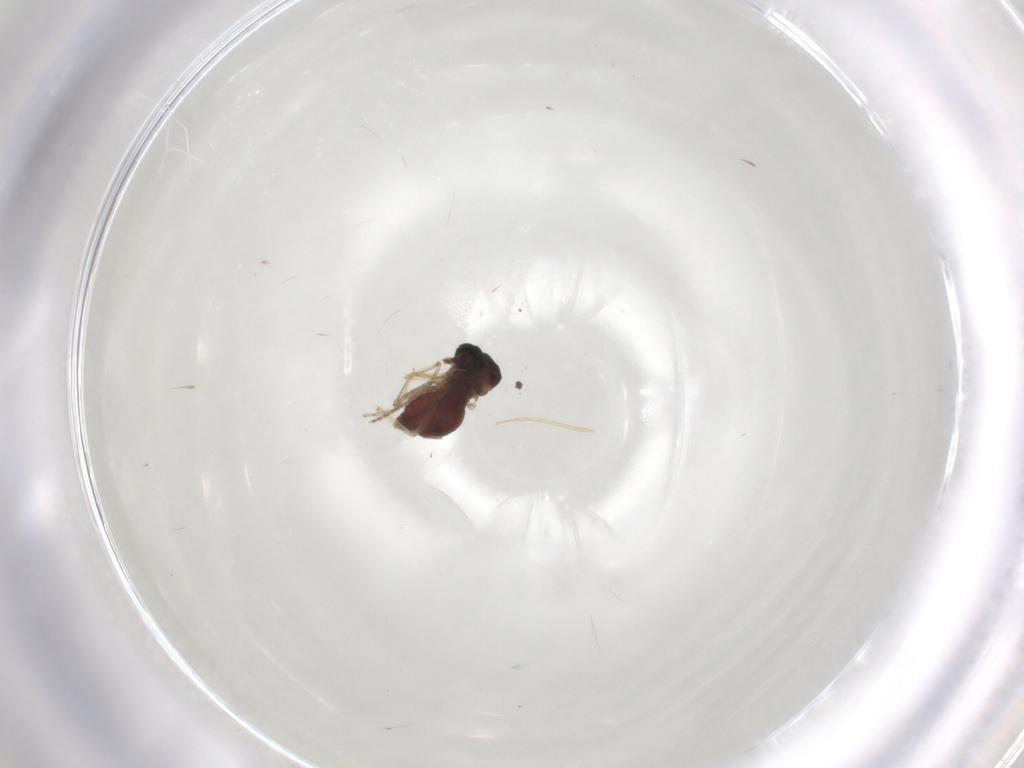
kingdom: Animalia
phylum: Arthropoda
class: Insecta
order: Diptera
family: Ceratopogonidae
